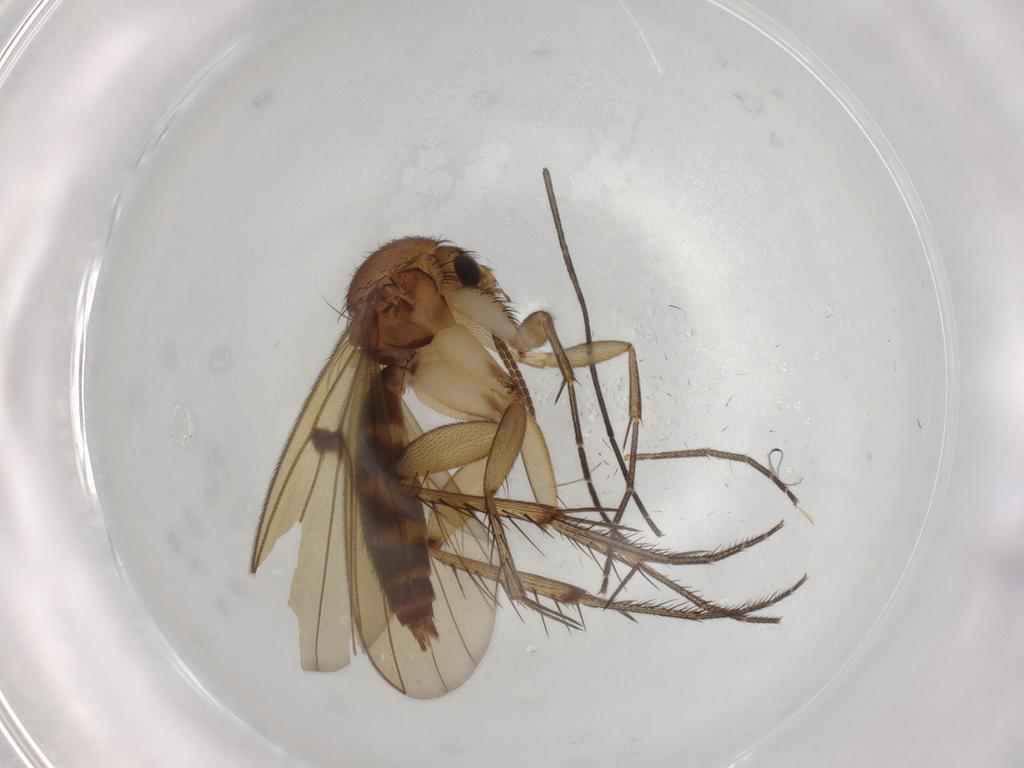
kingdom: Animalia
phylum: Arthropoda
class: Insecta
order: Diptera
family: Sciaridae
